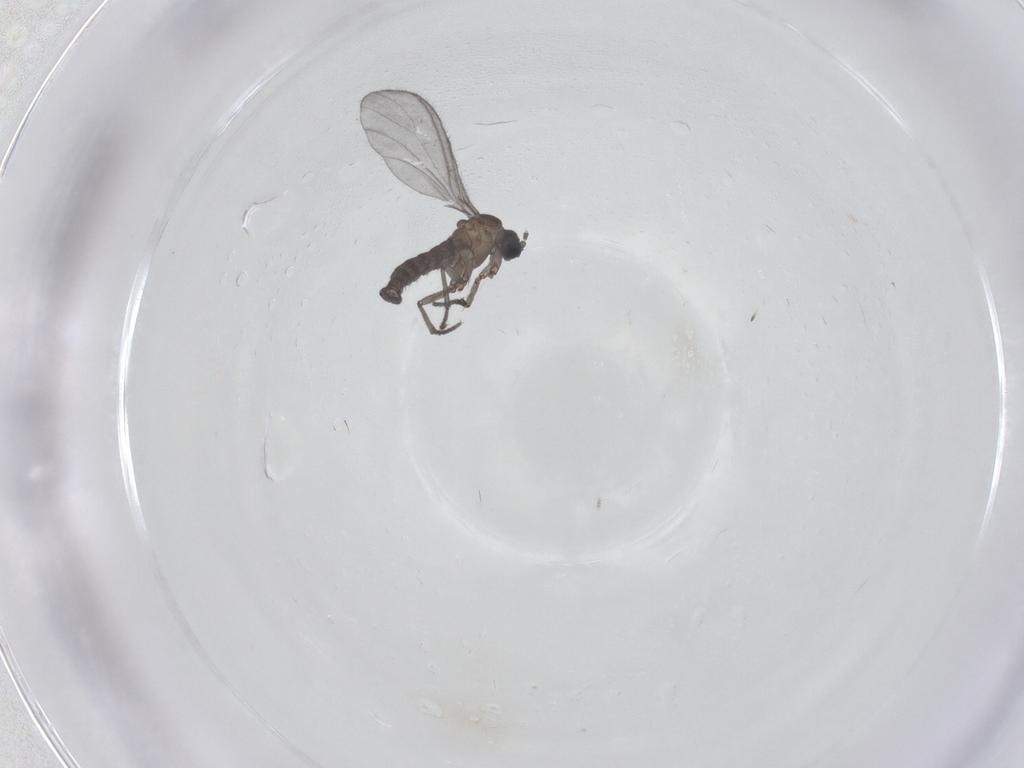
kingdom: Animalia
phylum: Arthropoda
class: Insecta
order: Diptera
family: Sciaridae
